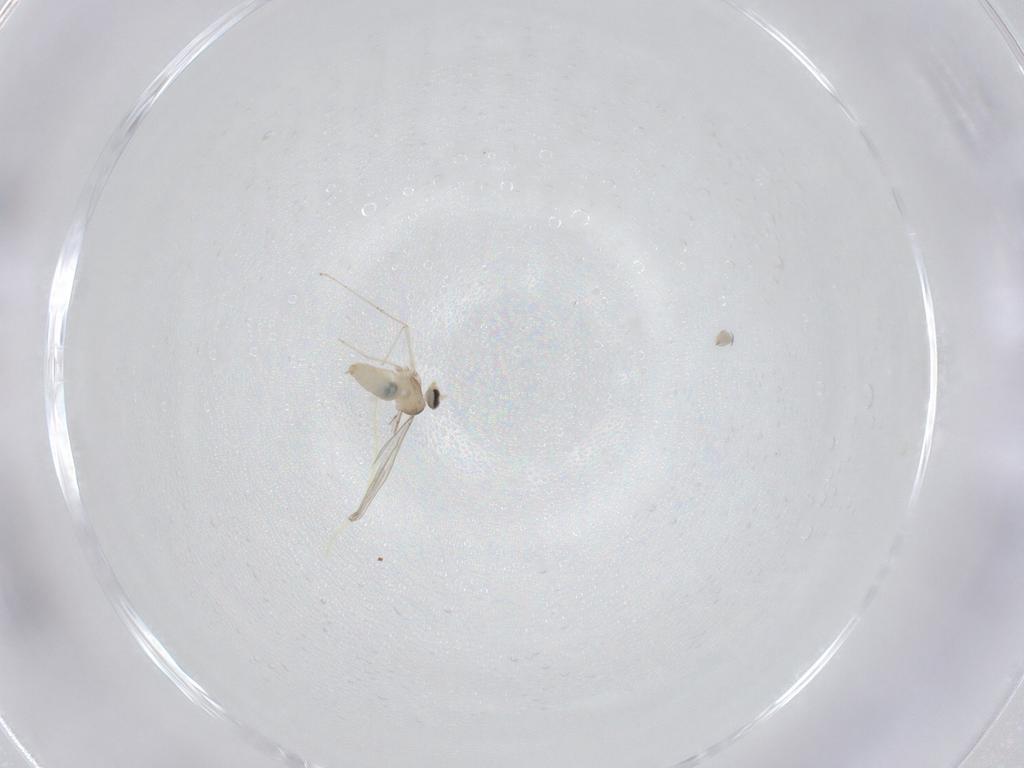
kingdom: Animalia
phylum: Arthropoda
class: Insecta
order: Diptera
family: Cecidomyiidae
